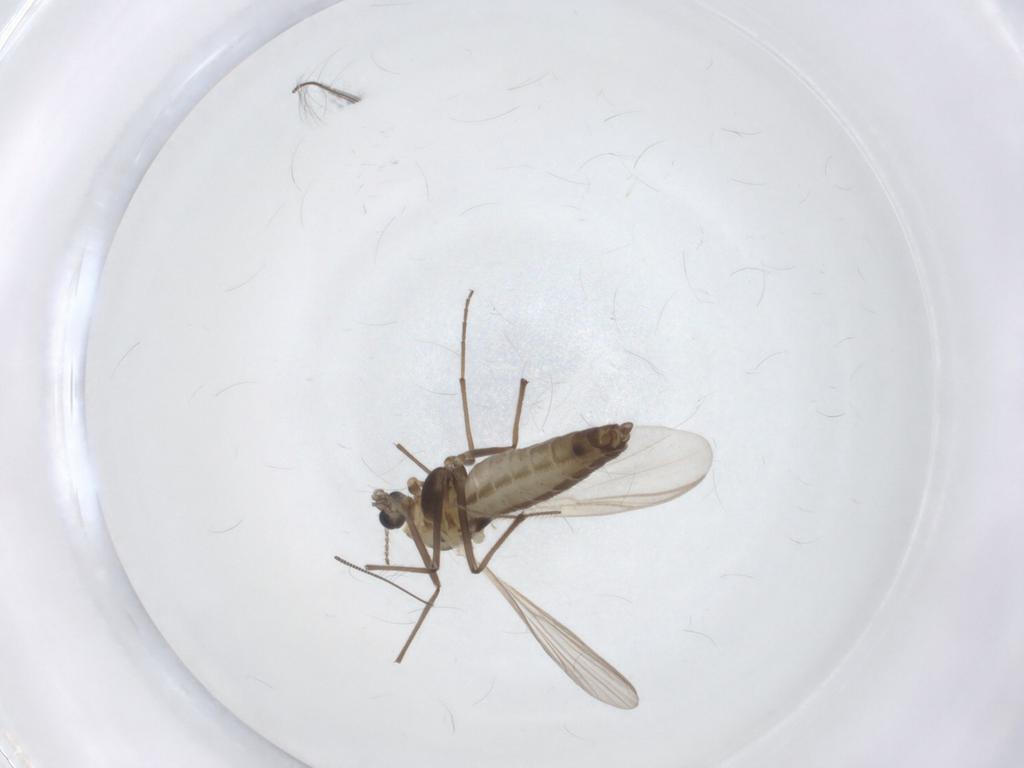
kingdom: Animalia
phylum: Arthropoda
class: Insecta
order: Diptera
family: Chironomidae
